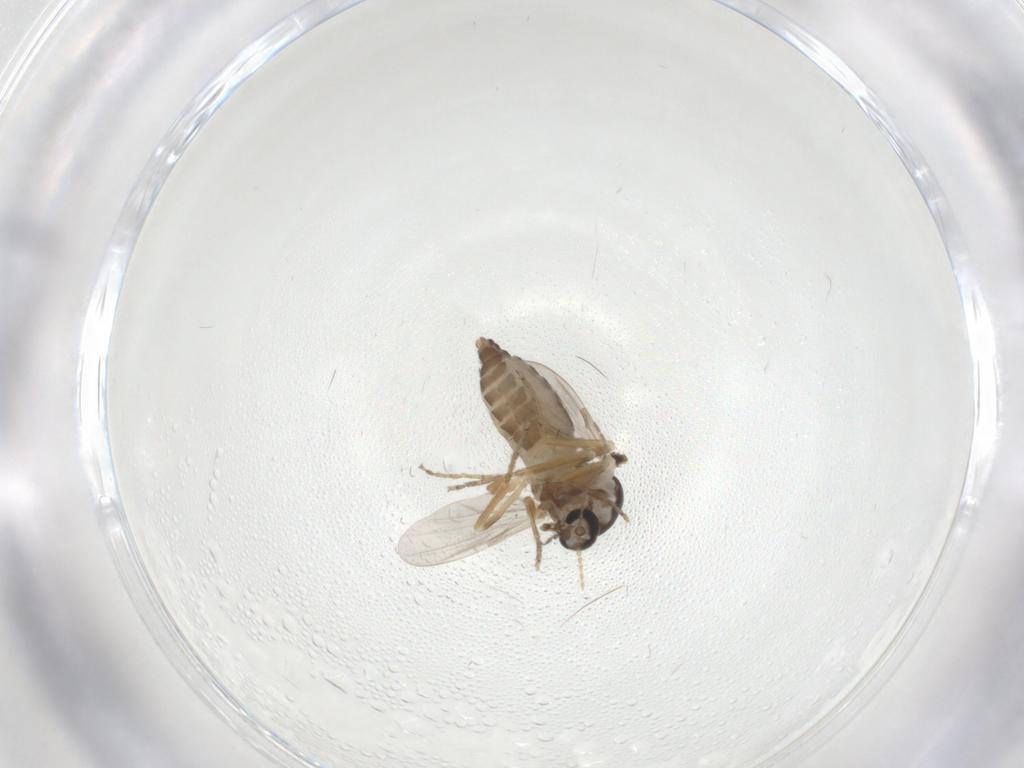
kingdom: Animalia
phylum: Arthropoda
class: Insecta
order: Diptera
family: Ceratopogonidae
